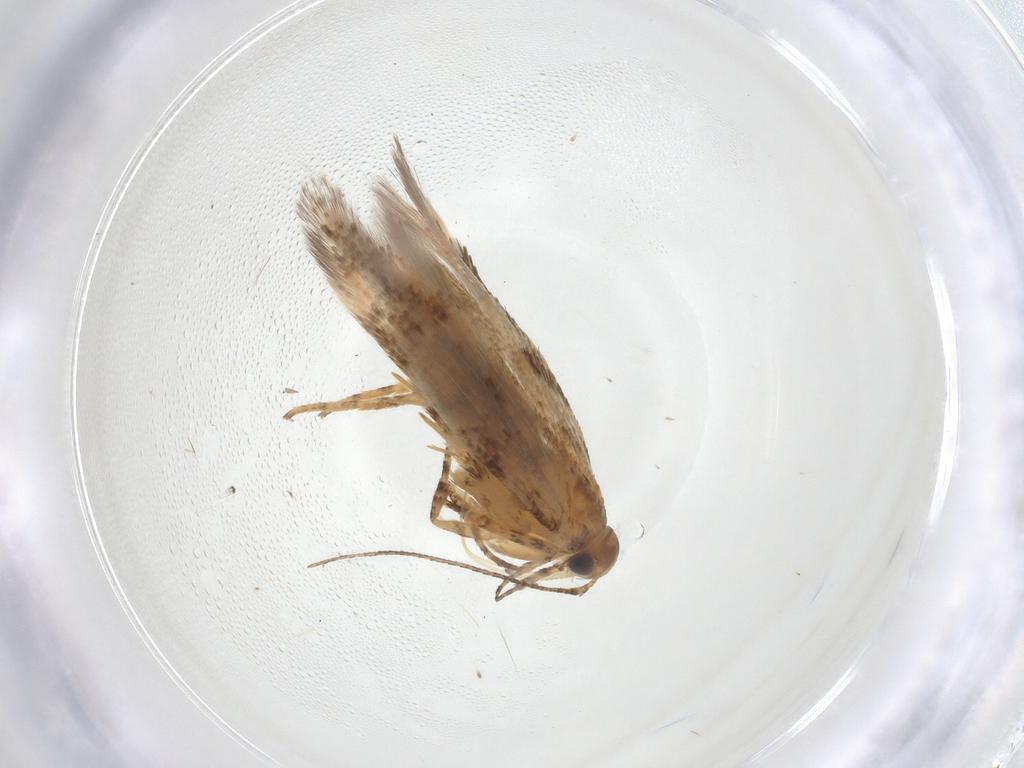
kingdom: Animalia
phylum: Arthropoda
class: Insecta
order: Lepidoptera
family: Gelechiidae
